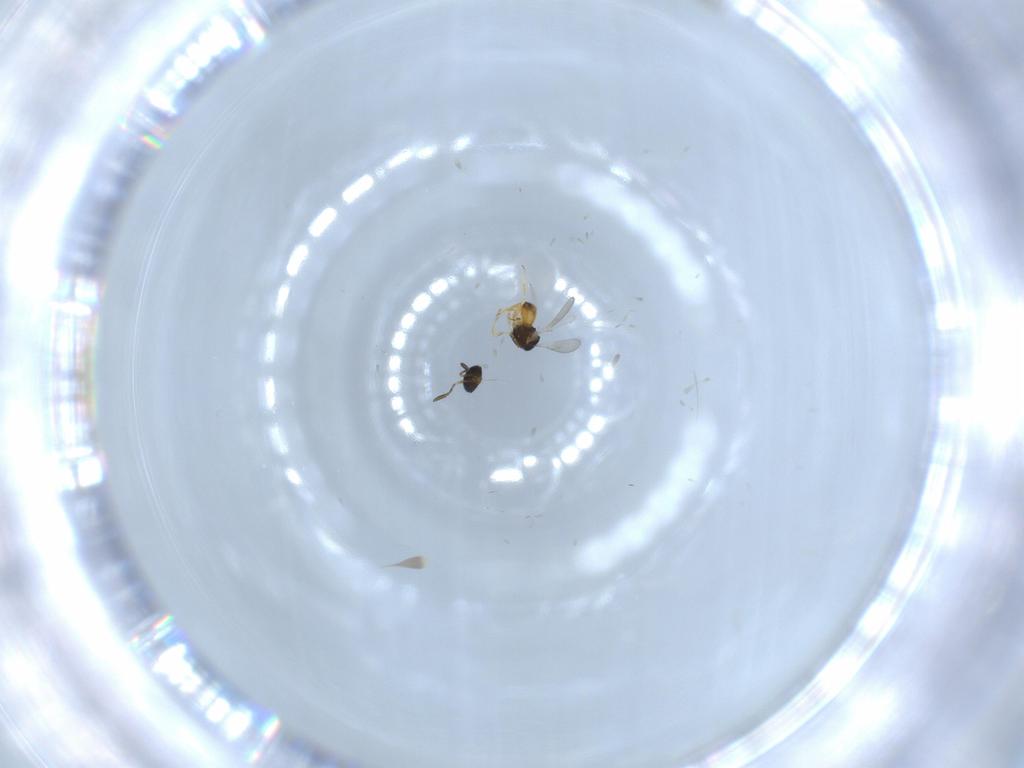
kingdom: Animalia
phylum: Arthropoda
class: Insecta
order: Hymenoptera
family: Scelionidae
